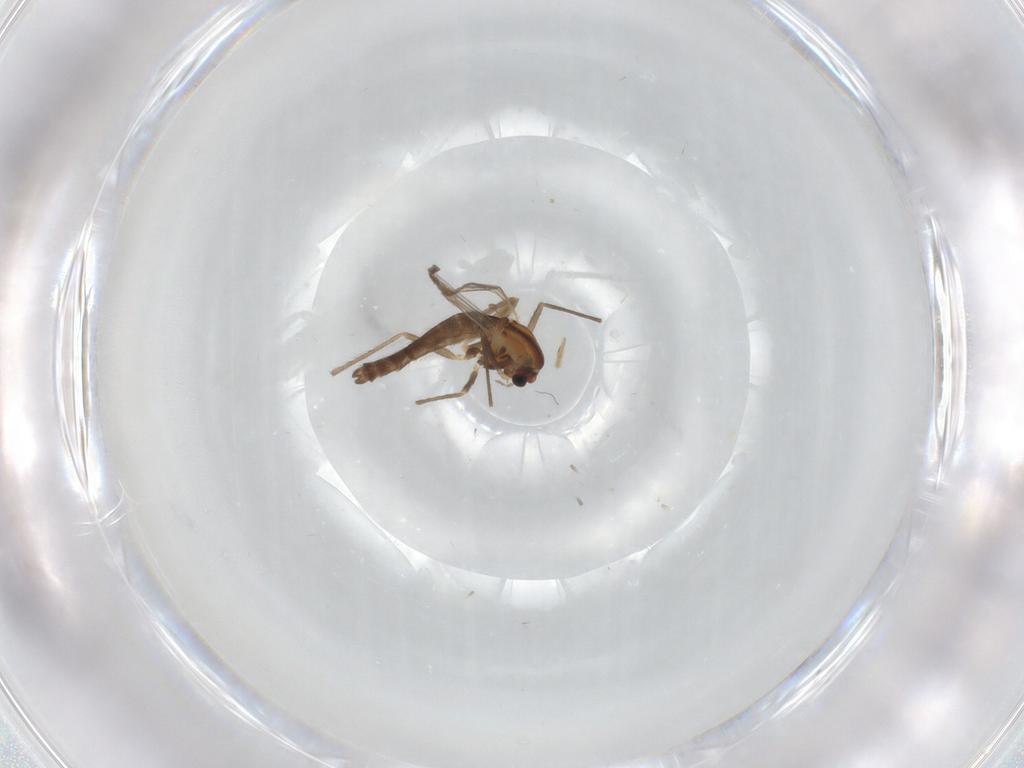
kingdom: Animalia
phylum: Arthropoda
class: Insecta
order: Diptera
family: Chironomidae
